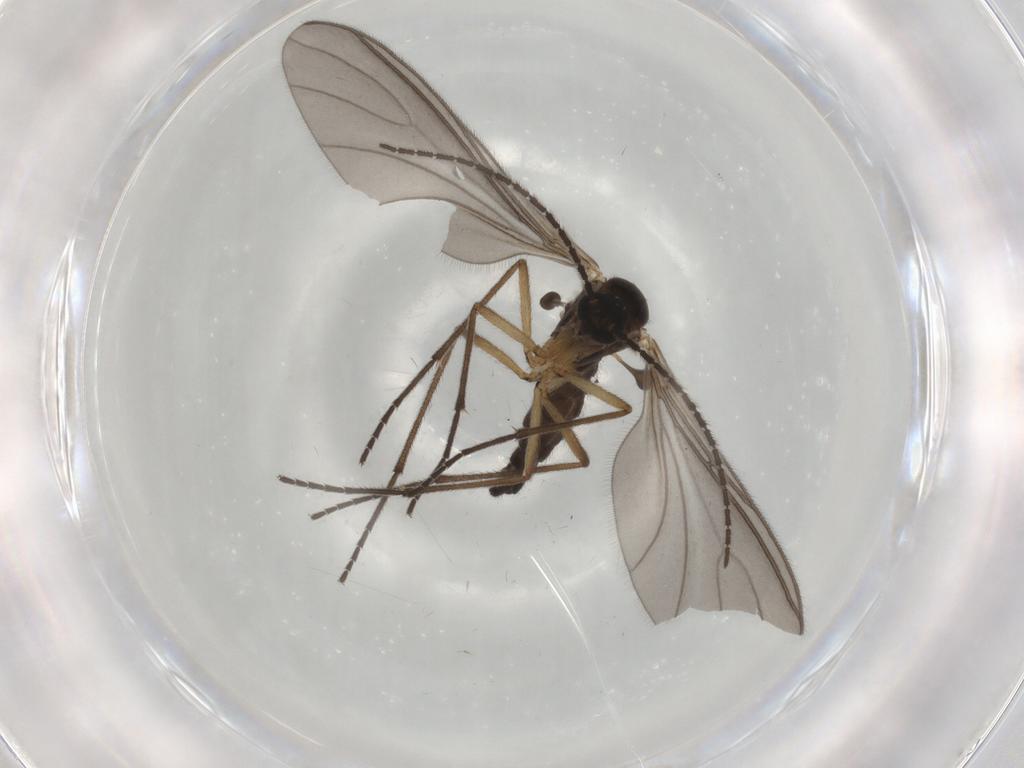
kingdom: Animalia
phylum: Arthropoda
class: Insecta
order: Diptera
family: Sciaridae
